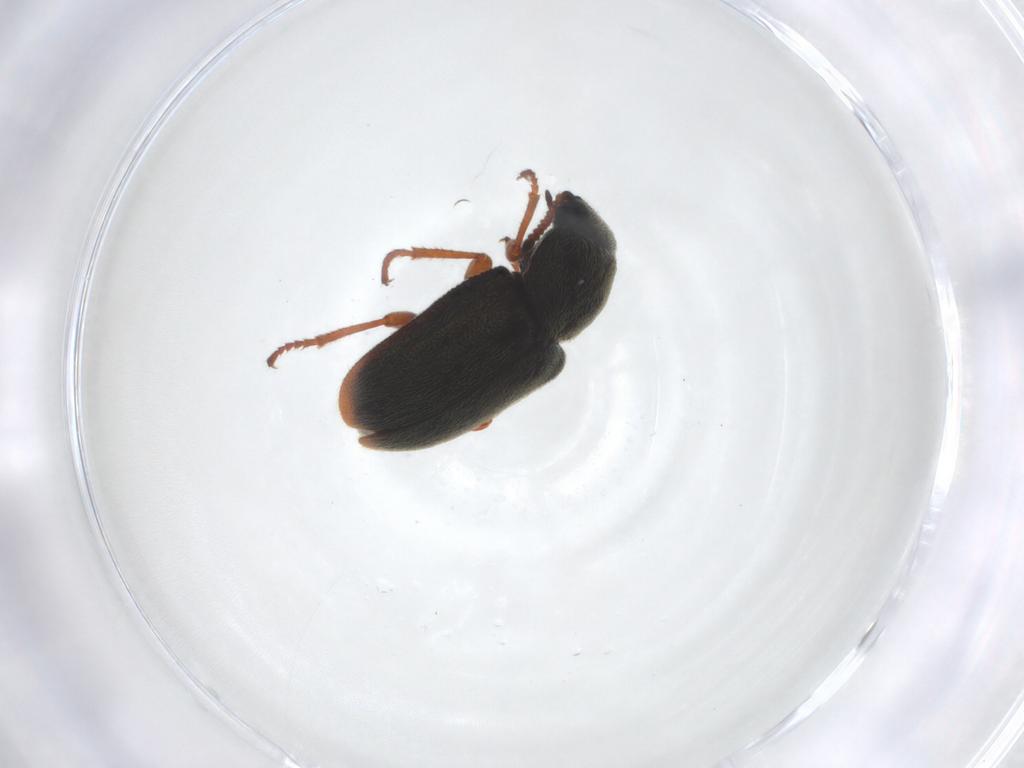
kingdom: Animalia
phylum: Arthropoda
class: Insecta
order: Coleoptera
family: Melyridae
